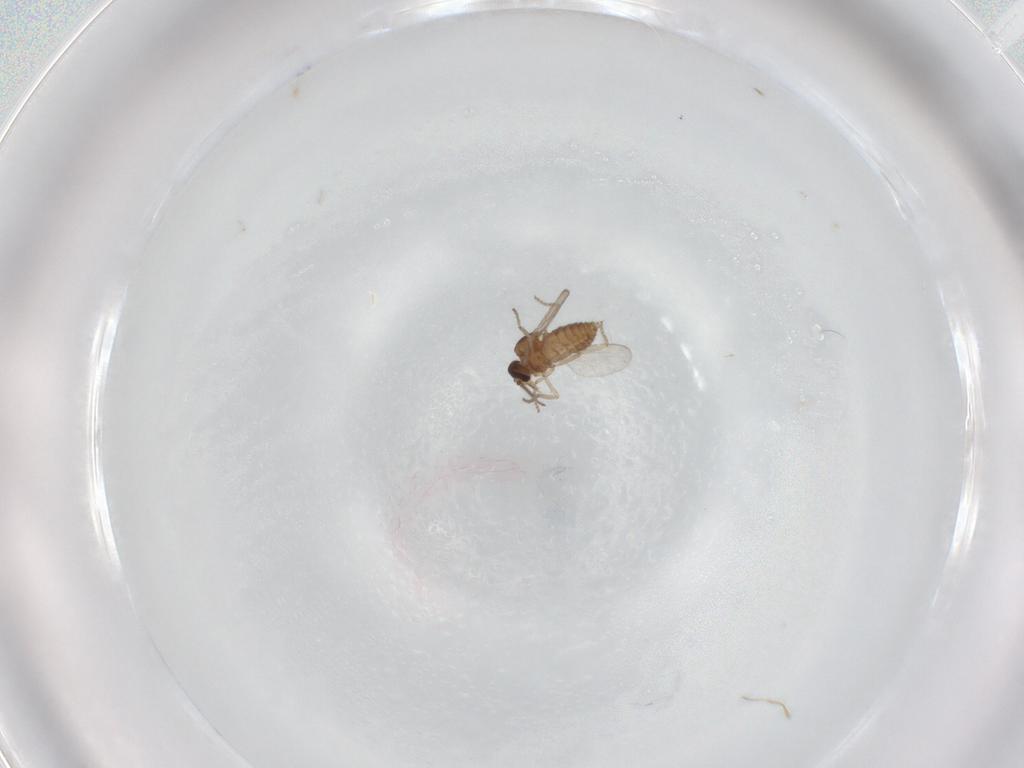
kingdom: Animalia
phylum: Arthropoda
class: Insecta
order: Diptera
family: Ceratopogonidae
